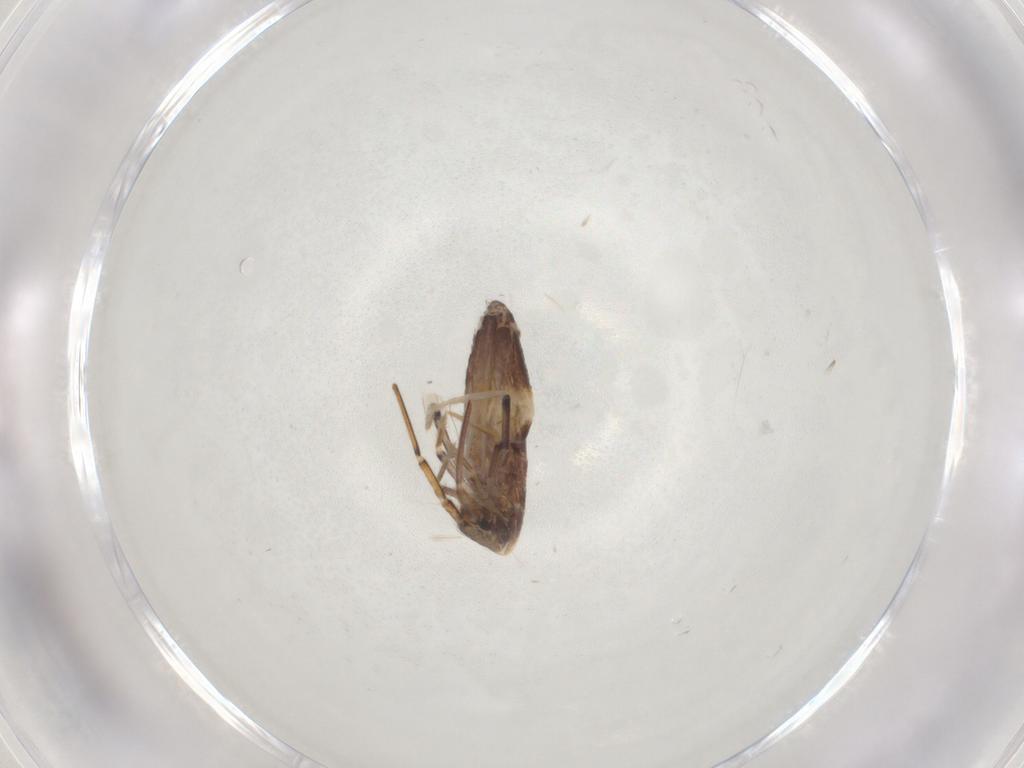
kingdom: Animalia
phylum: Arthropoda
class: Collembola
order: Entomobryomorpha
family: Entomobryidae
